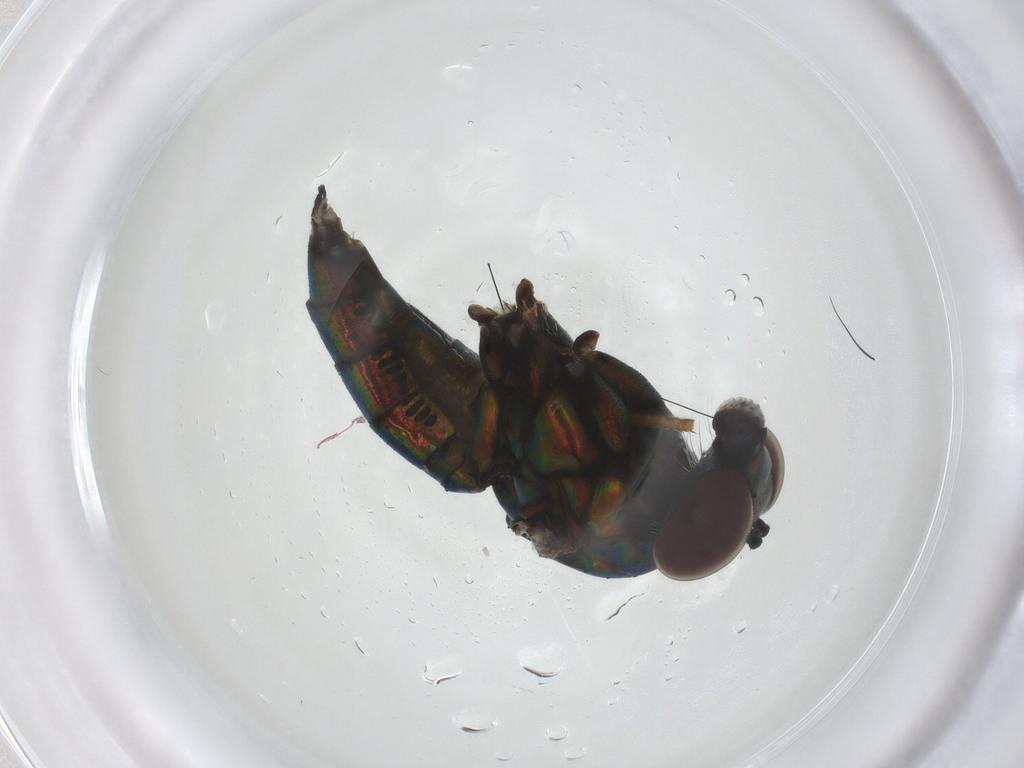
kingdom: Animalia
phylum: Arthropoda
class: Insecta
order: Diptera
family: Dolichopodidae
